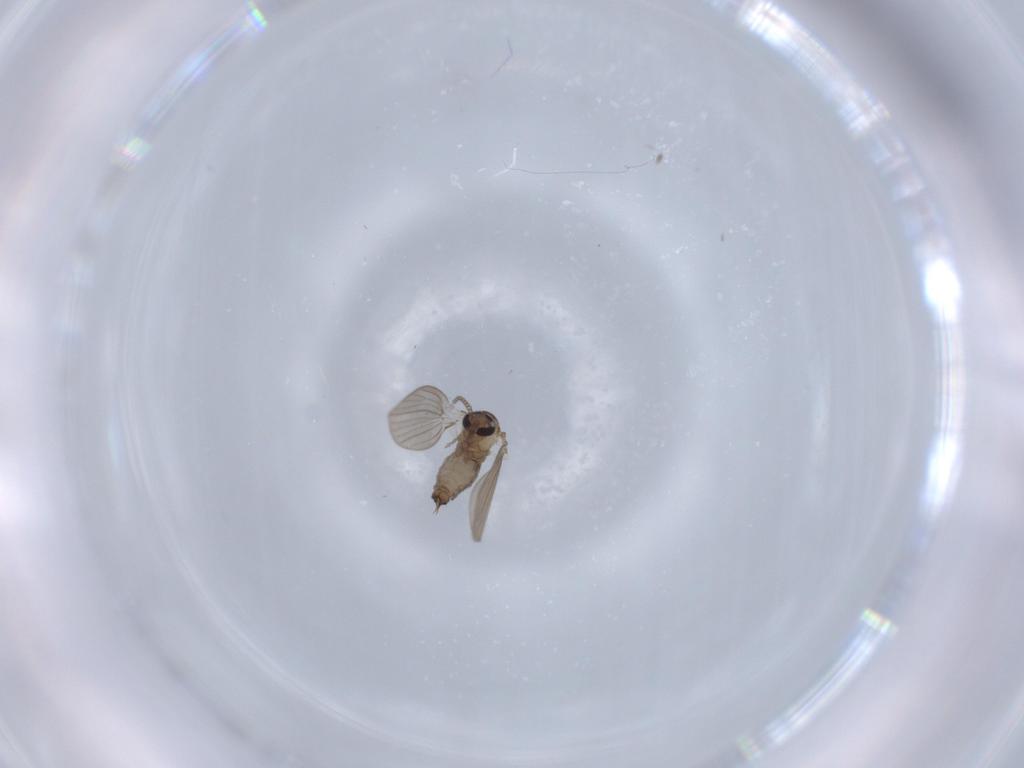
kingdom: Animalia
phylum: Arthropoda
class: Insecta
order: Diptera
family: Psychodidae
